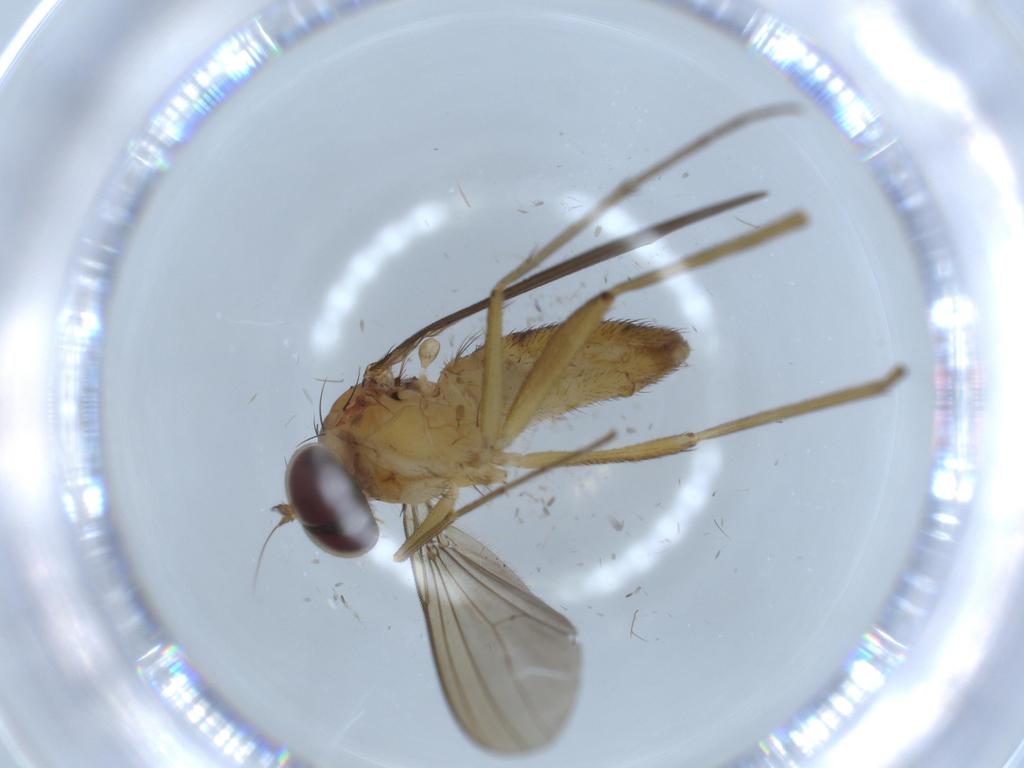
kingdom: Animalia
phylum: Arthropoda
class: Insecta
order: Diptera
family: Dolichopodidae
